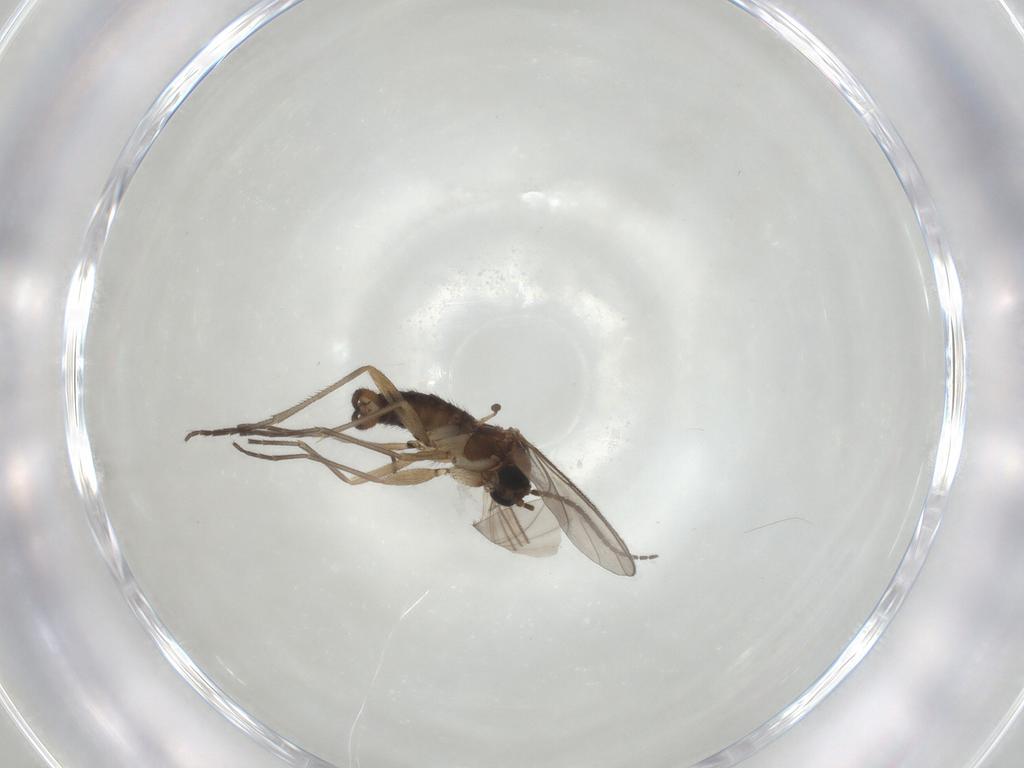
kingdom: Animalia
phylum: Arthropoda
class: Insecta
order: Diptera
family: Sciaridae
